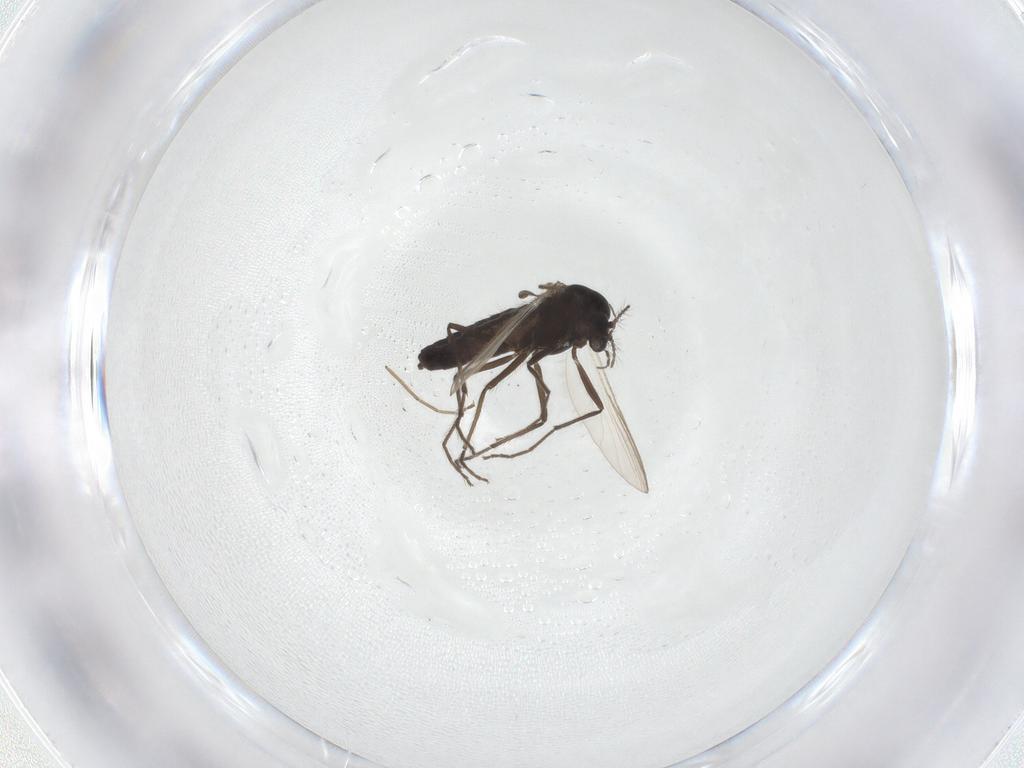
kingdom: Animalia
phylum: Arthropoda
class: Insecta
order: Diptera
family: Chironomidae
